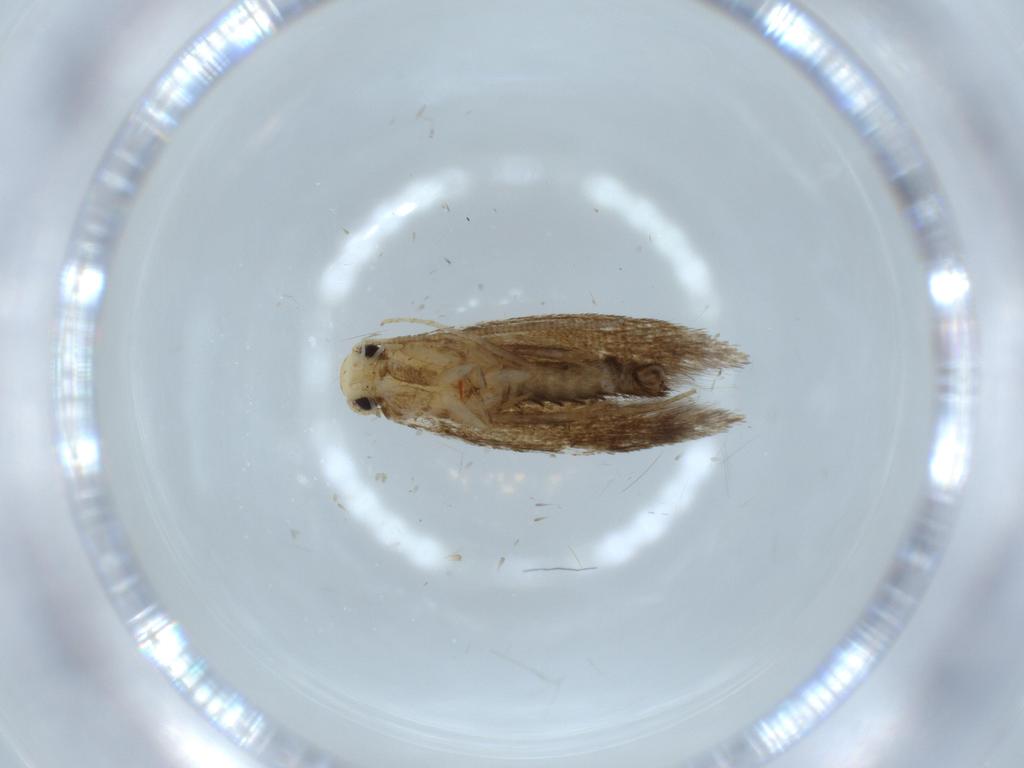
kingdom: Animalia
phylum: Arthropoda
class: Insecta
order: Lepidoptera
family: Tineidae
